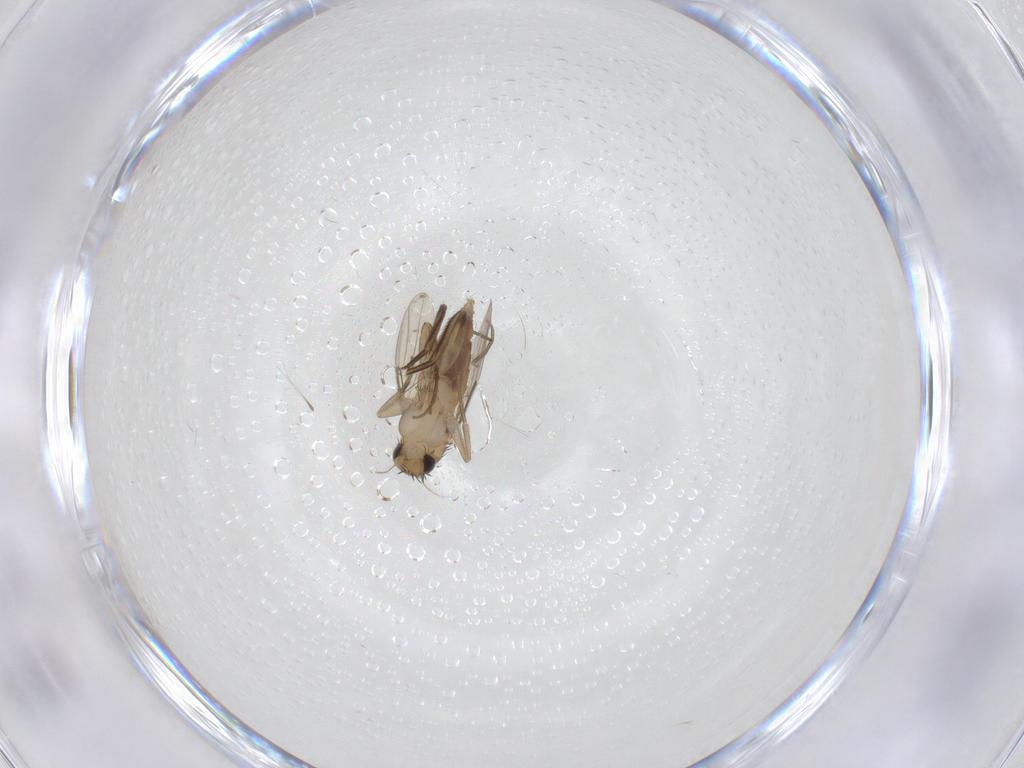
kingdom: Animalia
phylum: Arthropoda
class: Insecta
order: Diptera
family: Phoridae
